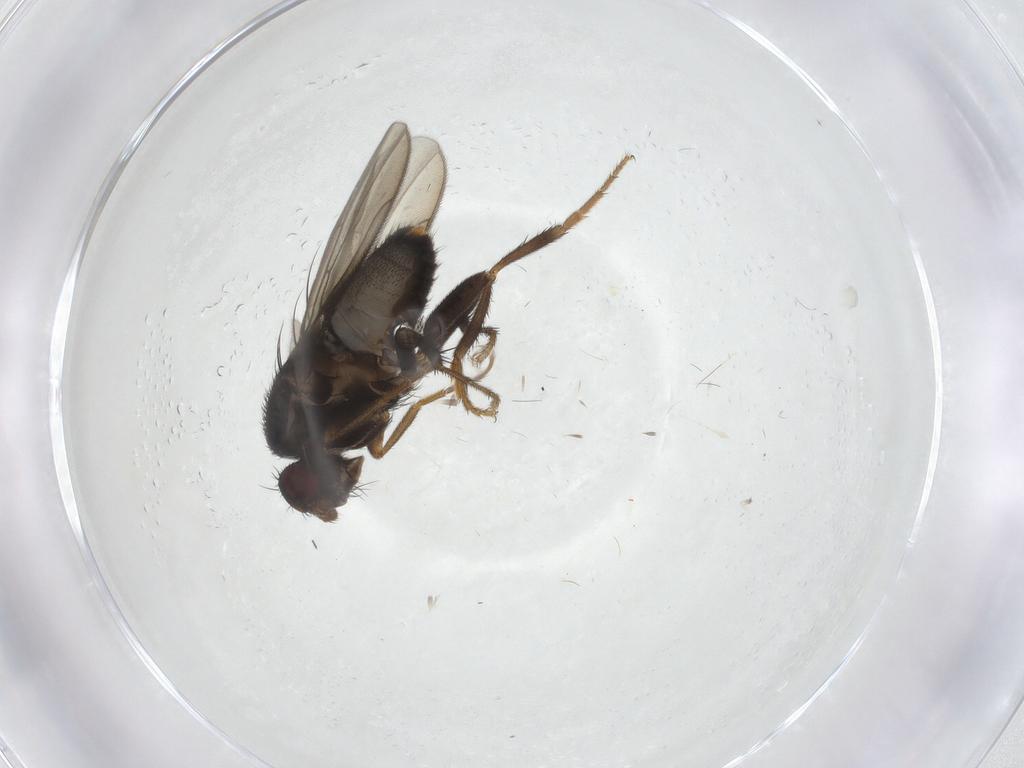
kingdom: Animalia
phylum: Arthropoda
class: Insecta
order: Diptera
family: Sphaeroceridae
